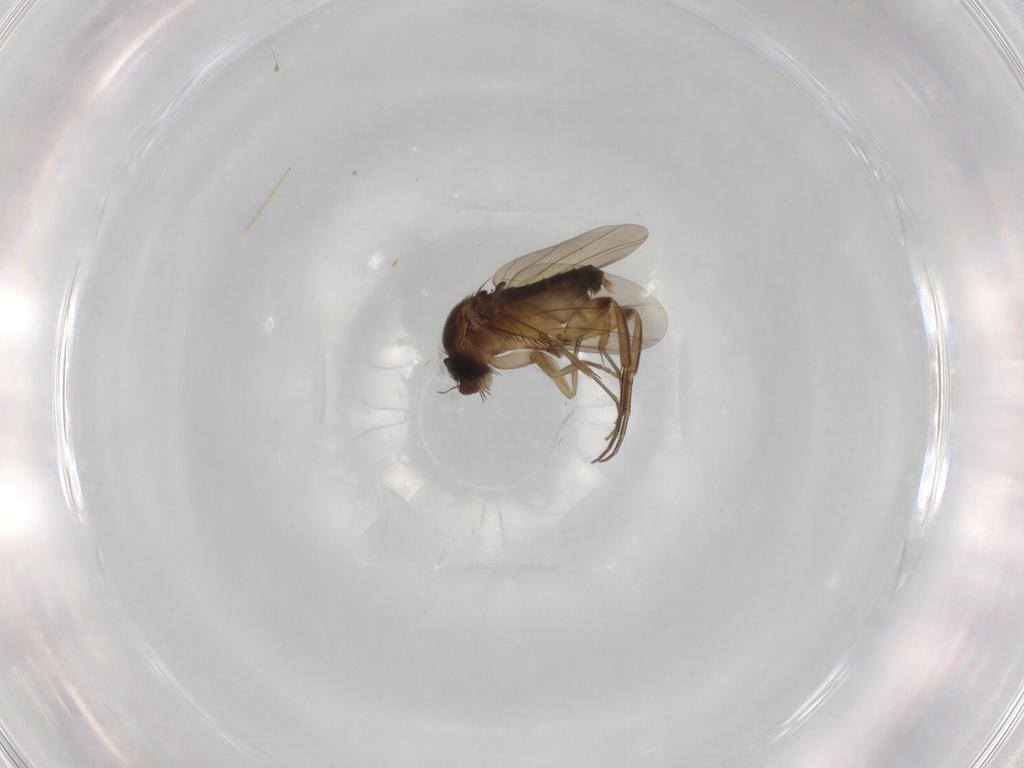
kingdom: Animalia
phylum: Arthropoda
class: Insecta
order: Diptera
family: Phoridae
